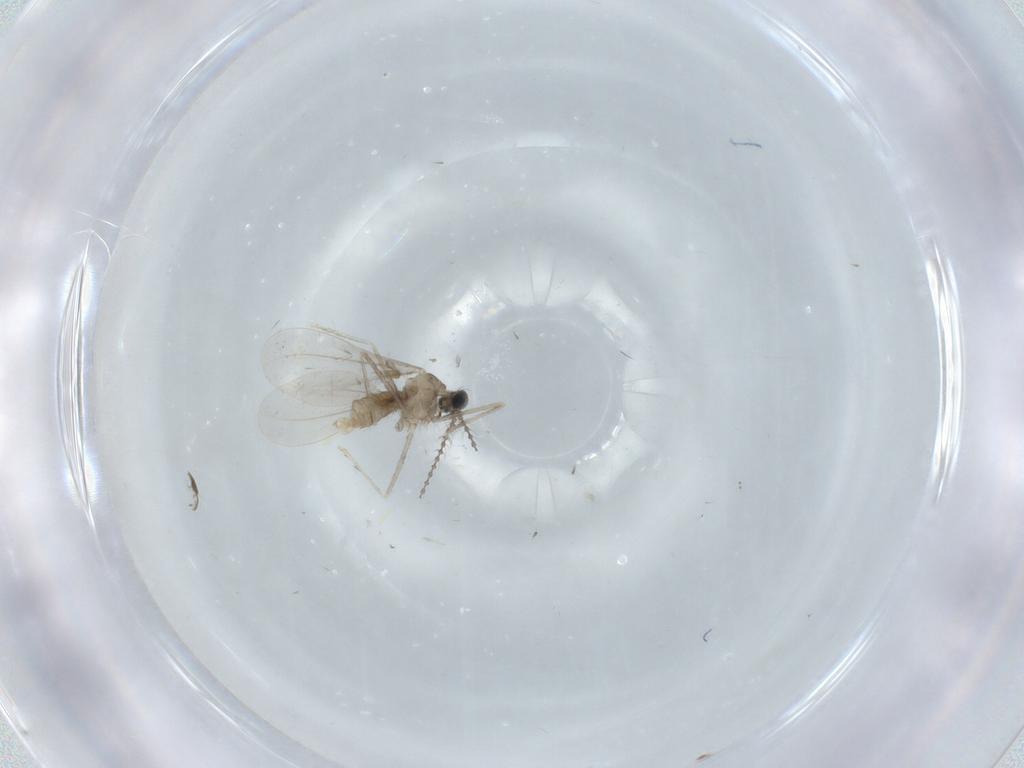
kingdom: Animalia
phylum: Arthropoda
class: Insecta
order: Diptera
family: Cecidomyiidae
